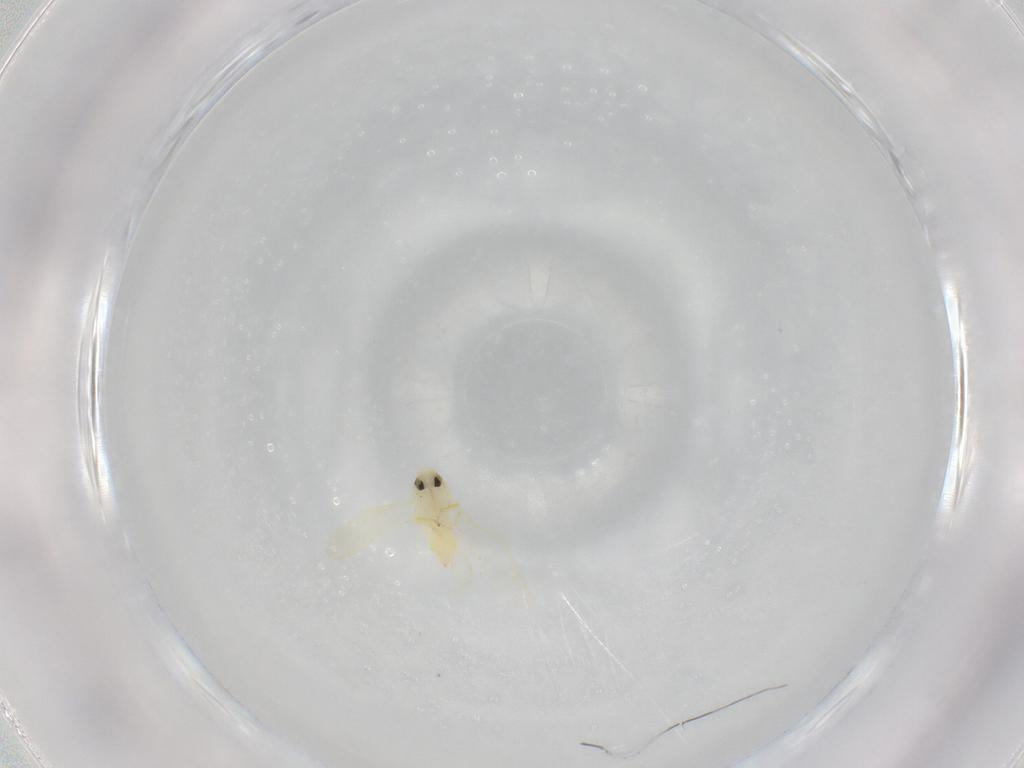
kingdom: Animalia
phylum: Arthropoda
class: Insecta
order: Hemiptera
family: Aleyrodidae
